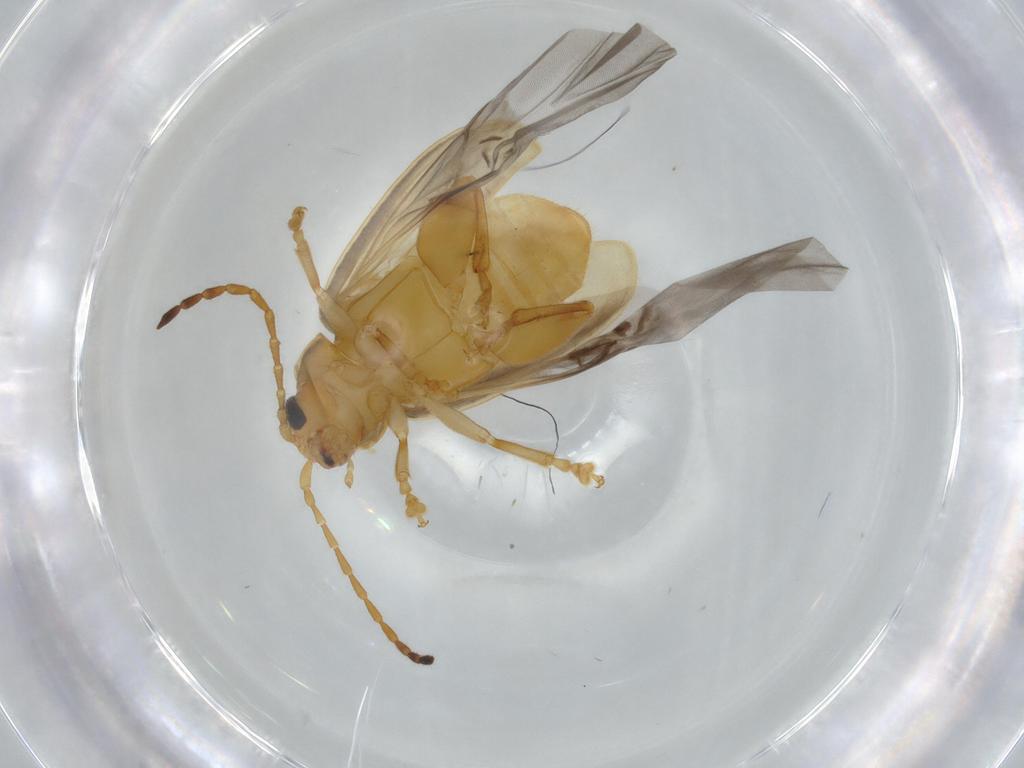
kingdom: Animalia
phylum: Arthropoda
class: Insecta
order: Coleoptera
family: Chrysomelidae
